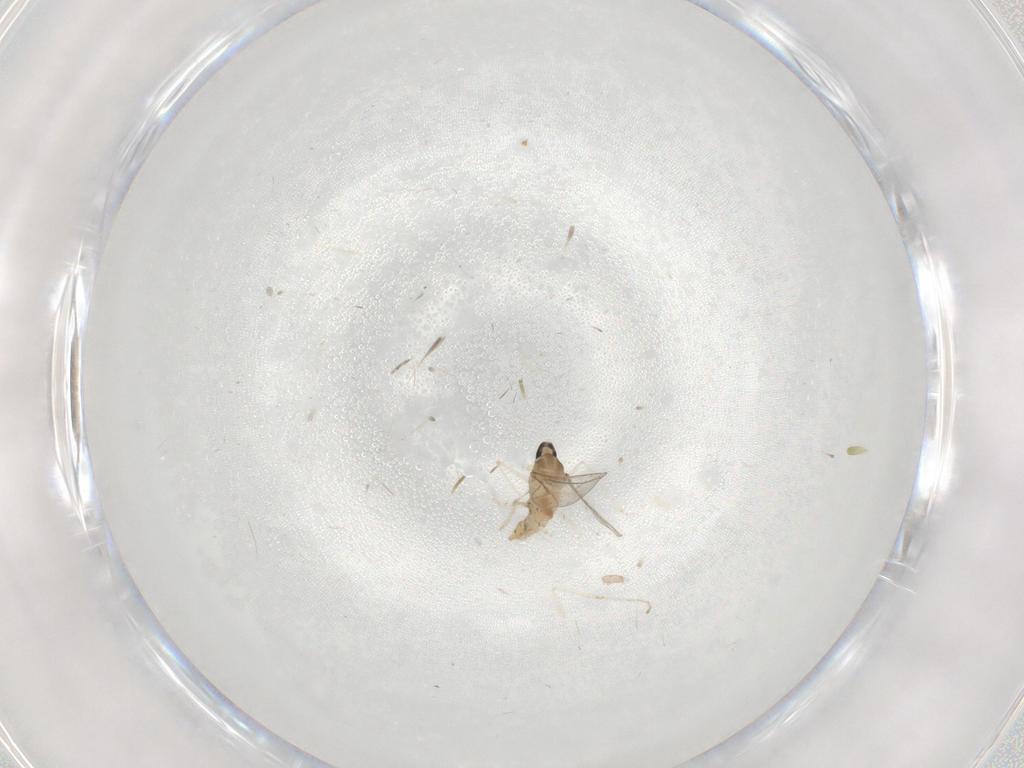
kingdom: Animalia
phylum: Arthropoda
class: Insecta
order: Diptera
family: Cecidomyiidae
